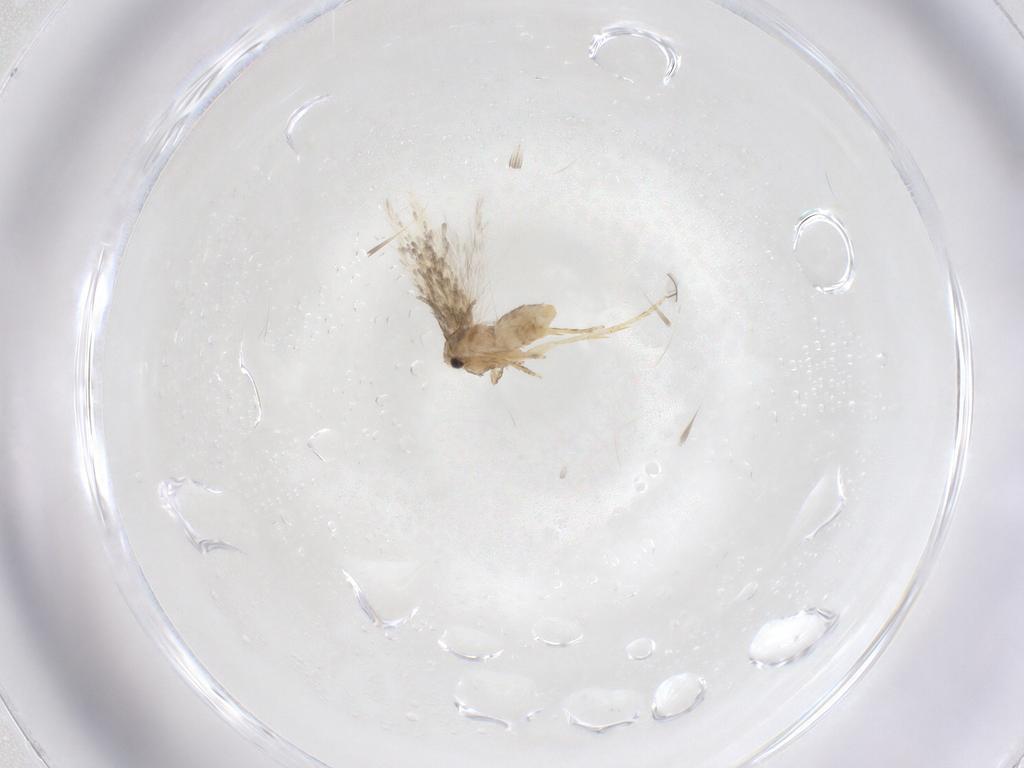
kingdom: Animalia
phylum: Arthropoda
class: Insecta
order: Lepidoptera
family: Nepticulidae
